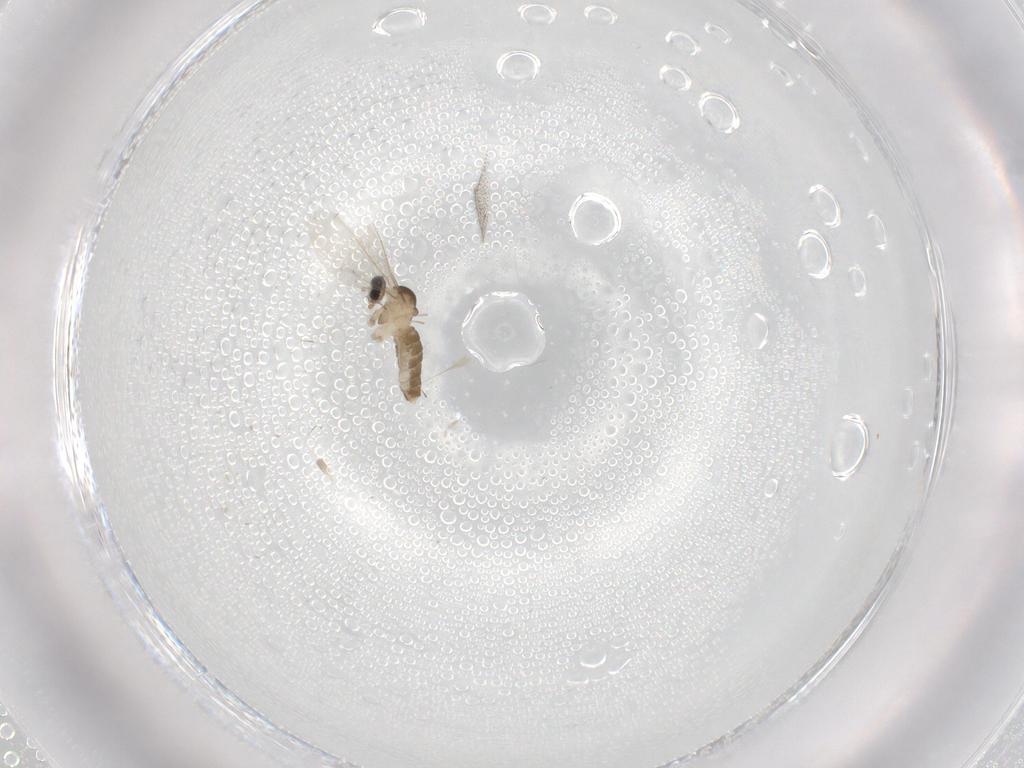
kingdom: Animalia
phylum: Arthropoda
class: Insecta
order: Diptera
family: Cecidomyiidae
